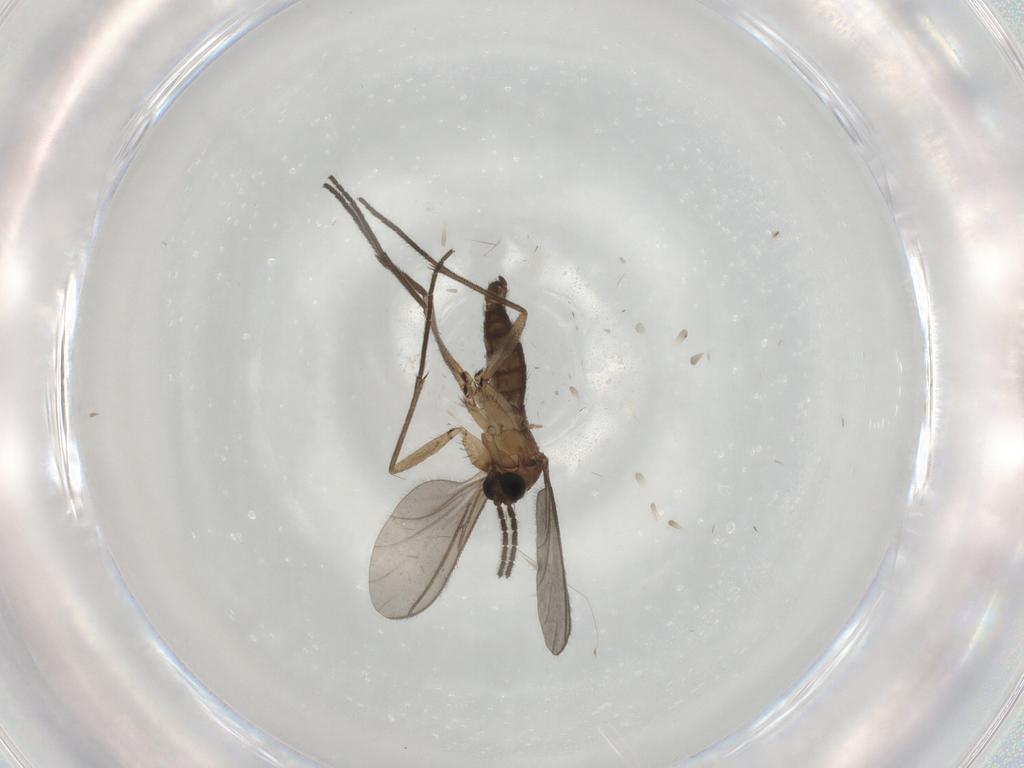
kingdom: Animalia
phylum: Arthropoda
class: Insecta
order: Diptera
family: Sciaridae
